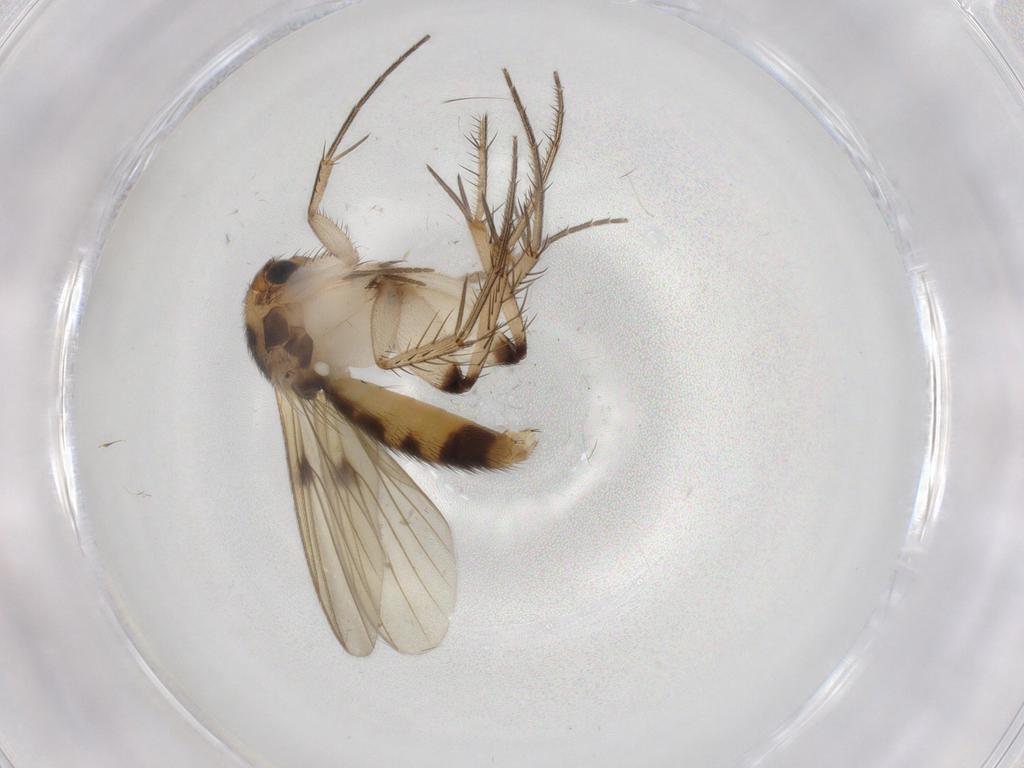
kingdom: Animalia
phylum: Arthropoda
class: Insecta
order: Diptera
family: Mycetophilidae
